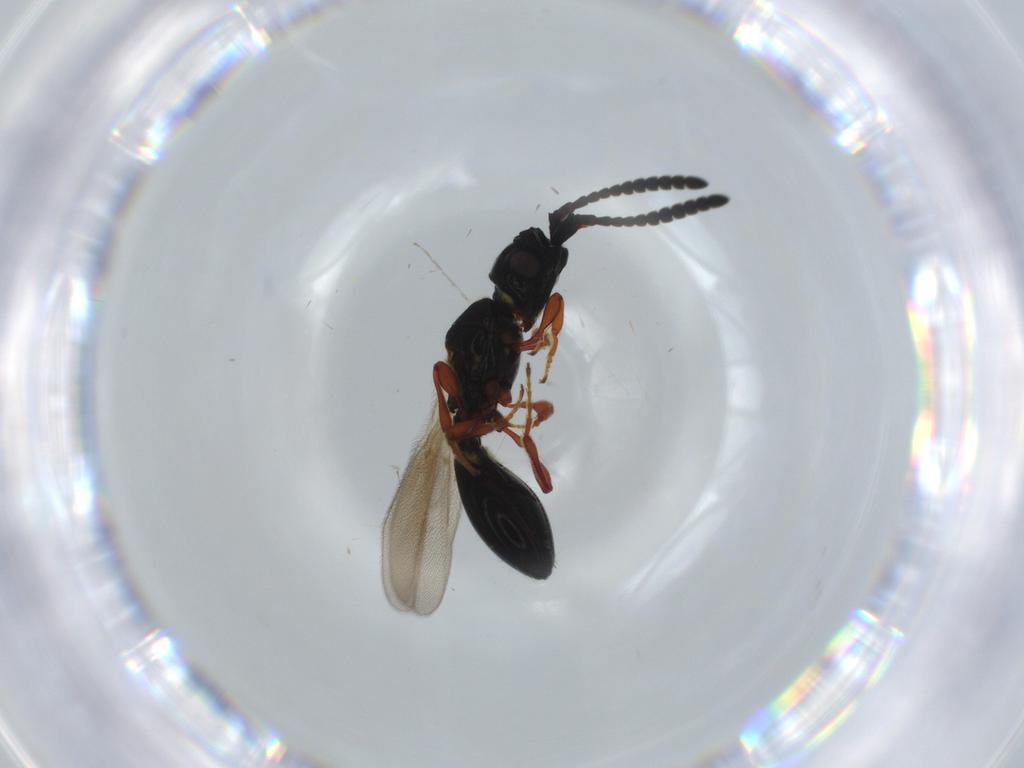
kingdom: Animalia
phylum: Arthropoda
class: Insecta
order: Hymenoptera
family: Diapriidae
